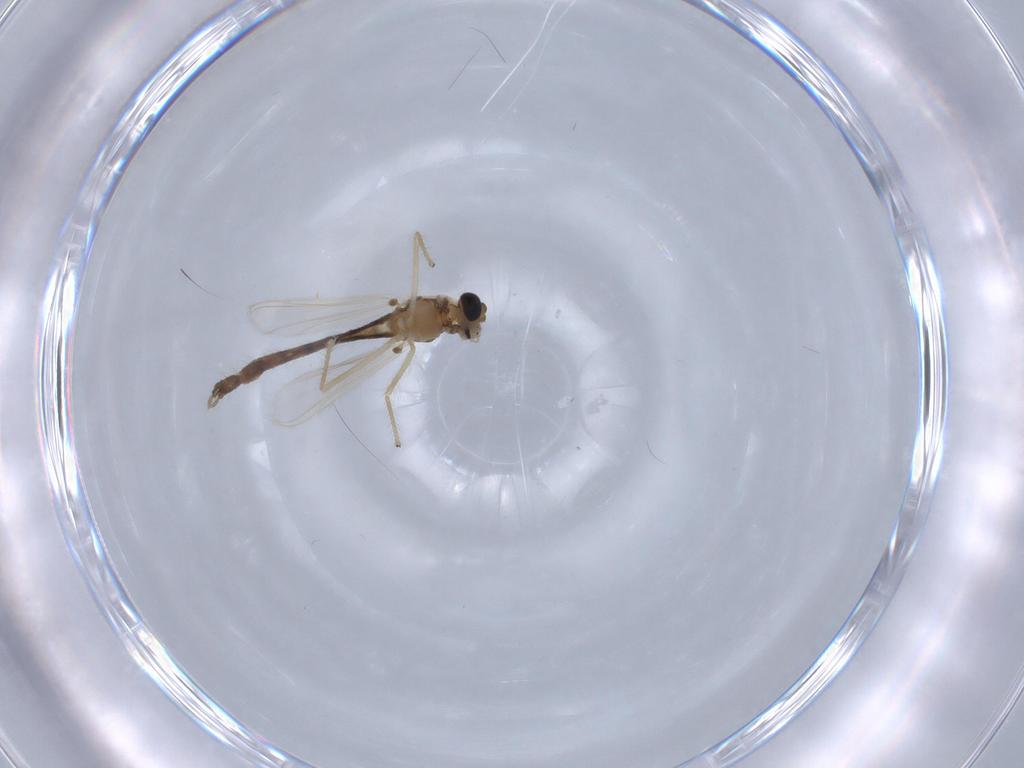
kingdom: Animalia
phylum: Arthropoda
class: Insecta
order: Diptera
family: Chironomidae
